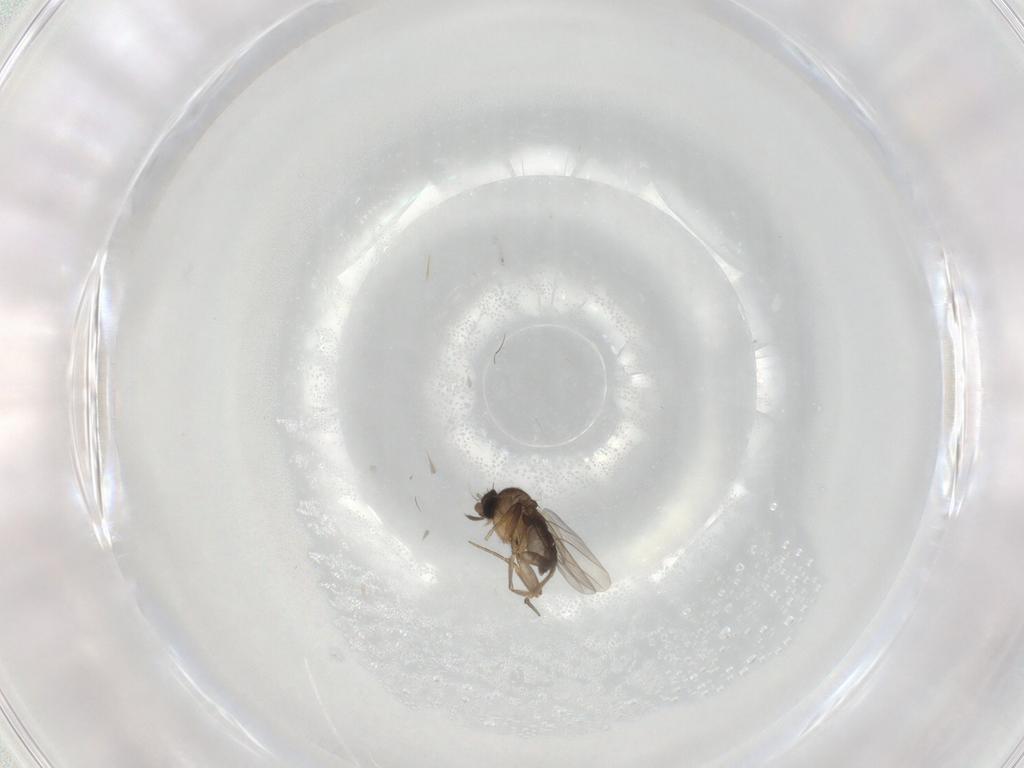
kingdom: Animalia
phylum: Arthropoda
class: Insecta
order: Diptera
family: Phoridae
